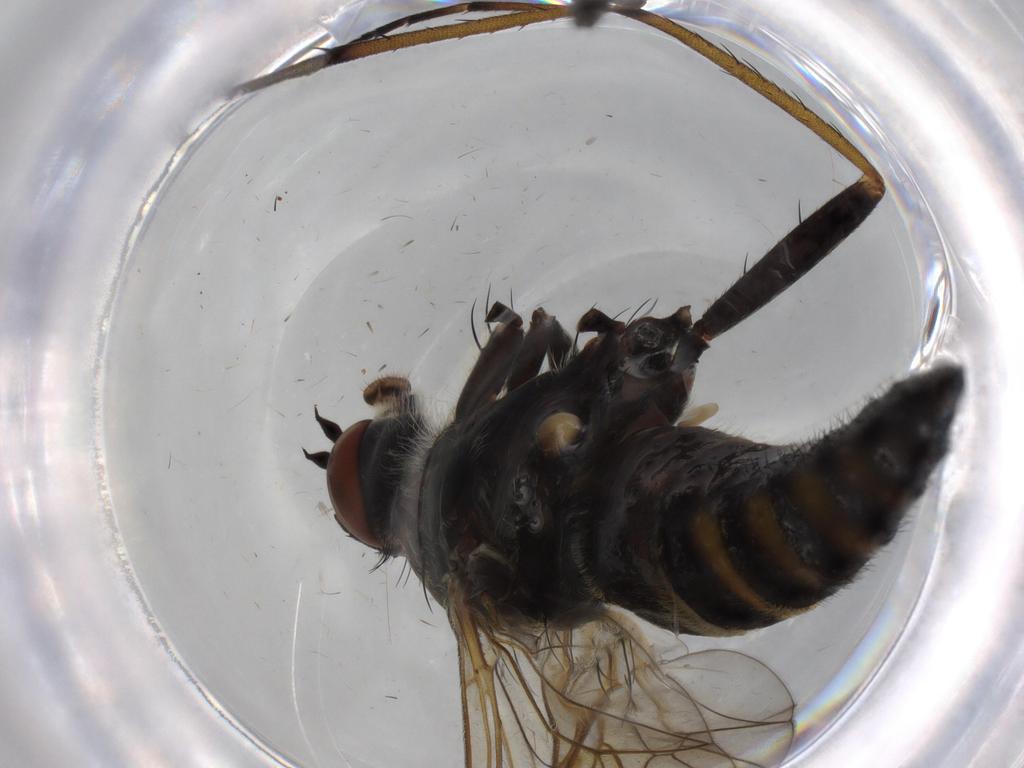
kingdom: Animalia
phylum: Arthropoda
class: Insecta
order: Diptera
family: Cecidomyiidae
